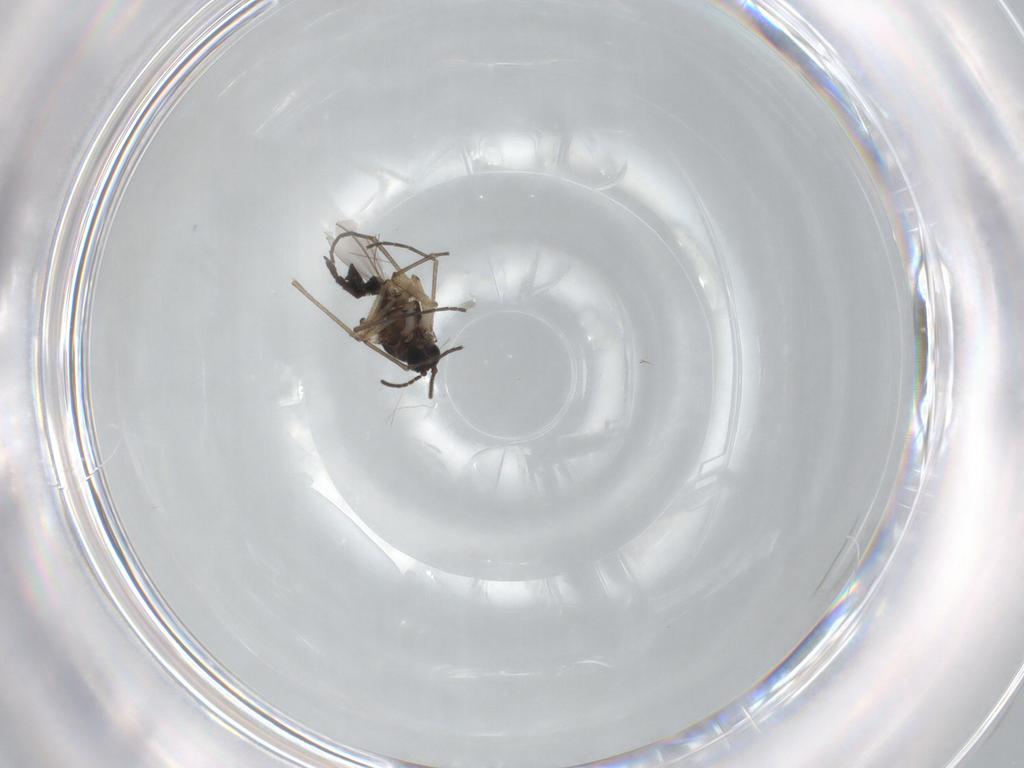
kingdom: Animalia
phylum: Arthropoda
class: Insecta
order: Diptera
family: Sciaridae
